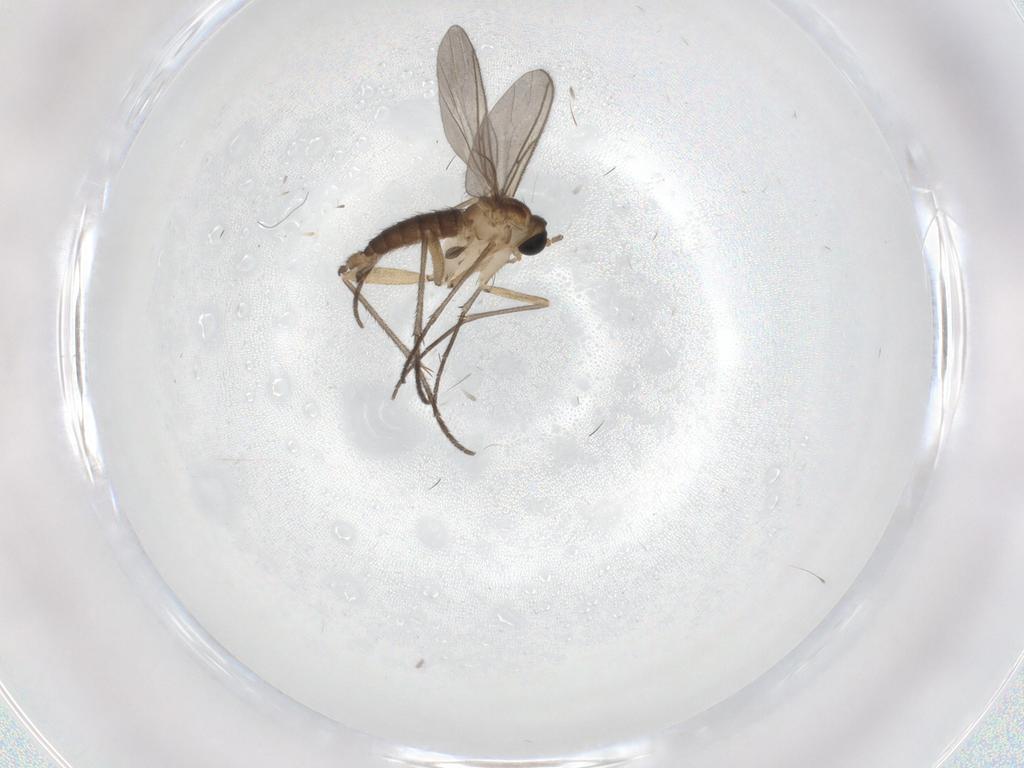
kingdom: Animalia
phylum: Arthropoda
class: Insecta
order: Diptera
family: Sciaridae
